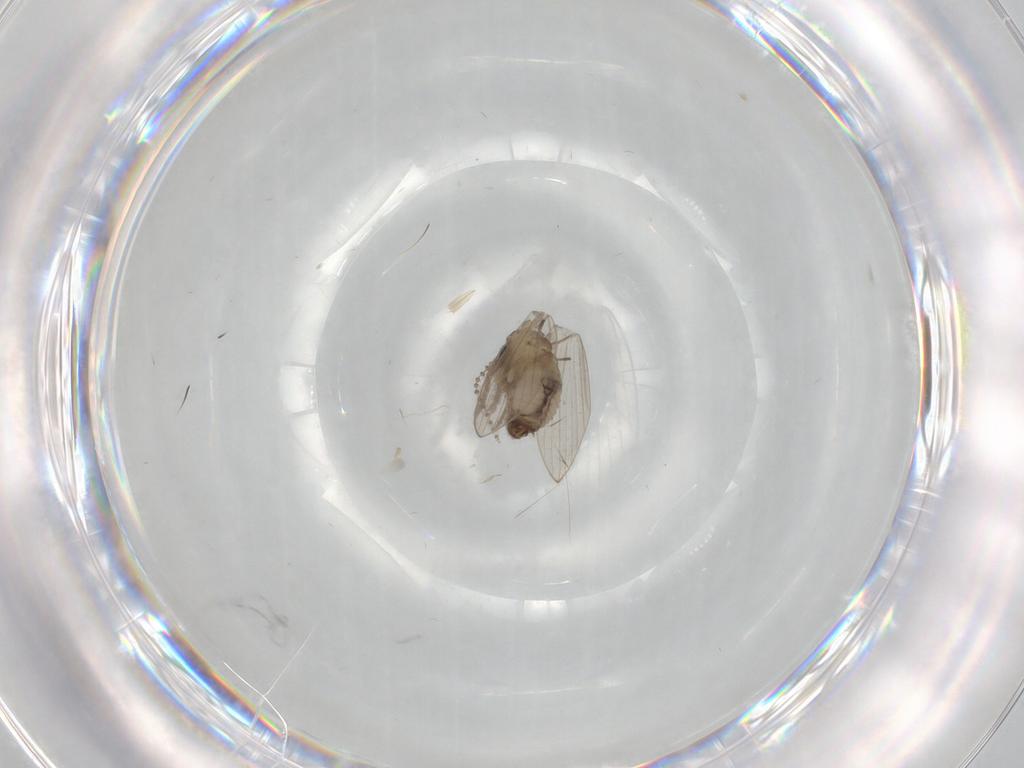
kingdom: Animalia
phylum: Arthropoda
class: Insecta
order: Diptera
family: Psychodidae
